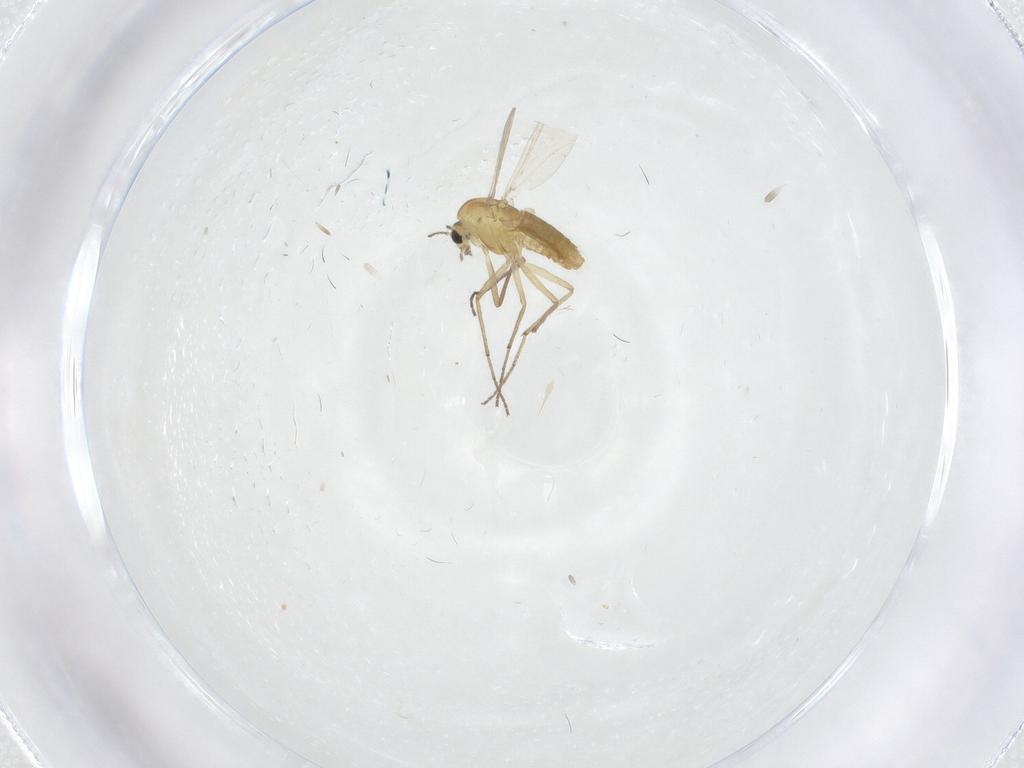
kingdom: Animalia
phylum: Arthropoda
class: Insecta
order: Diptera
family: Chironomidae
